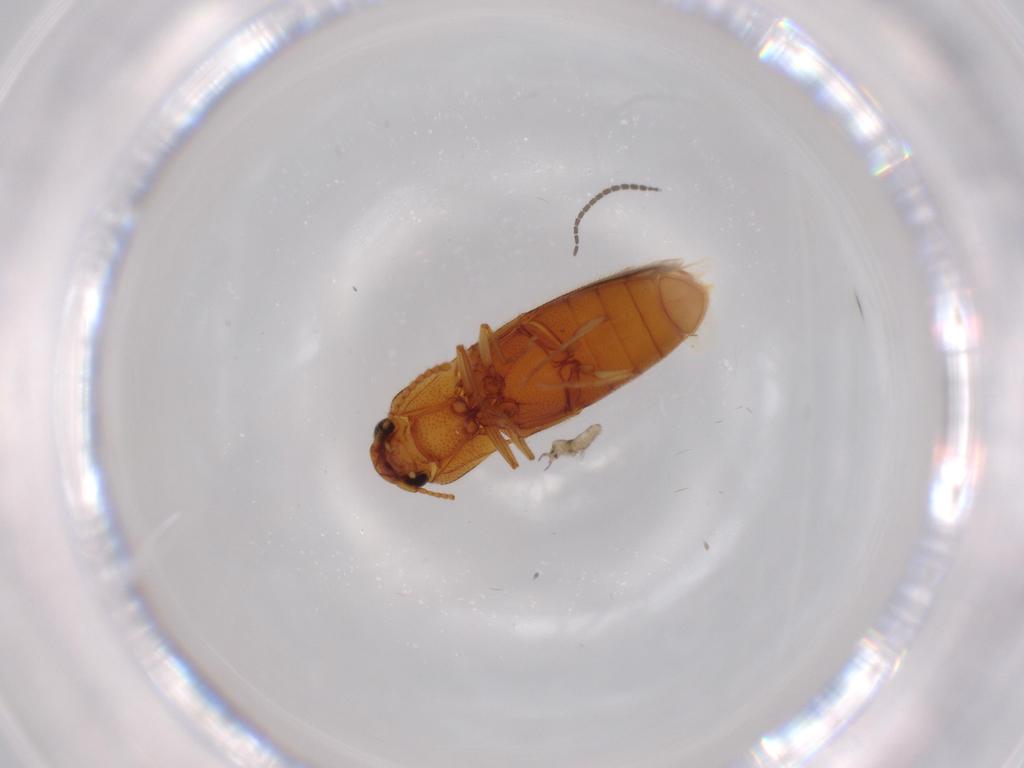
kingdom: Animalia
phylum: Arthropoda
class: Insecta
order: Coleoptera
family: Elateridae
